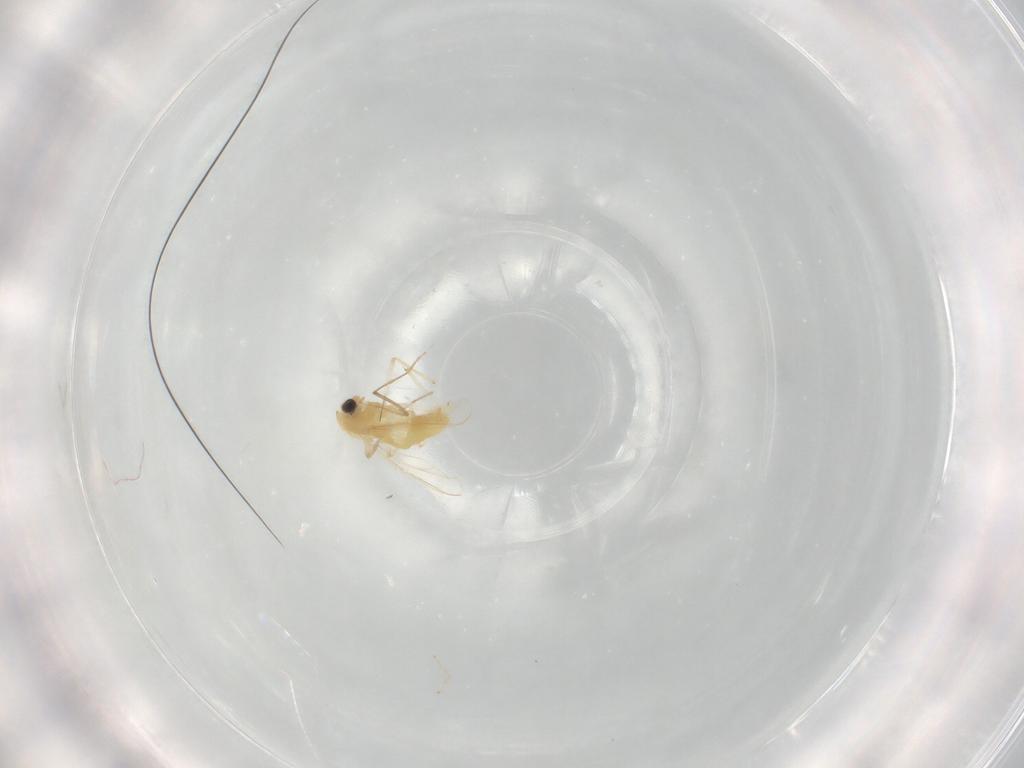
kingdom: Animalia
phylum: Arthropoda
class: Insecta
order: Diptera
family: Chironomidae
